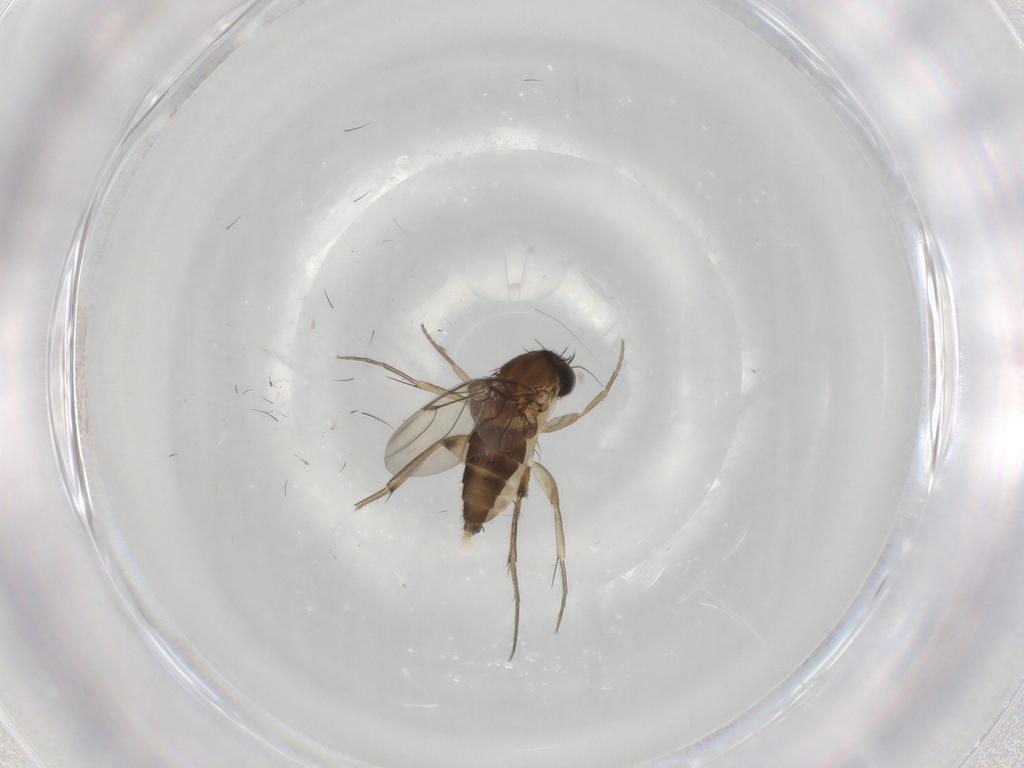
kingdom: Animalia
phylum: Arthropoda
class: Insecta
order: Diptera
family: Phoridae
